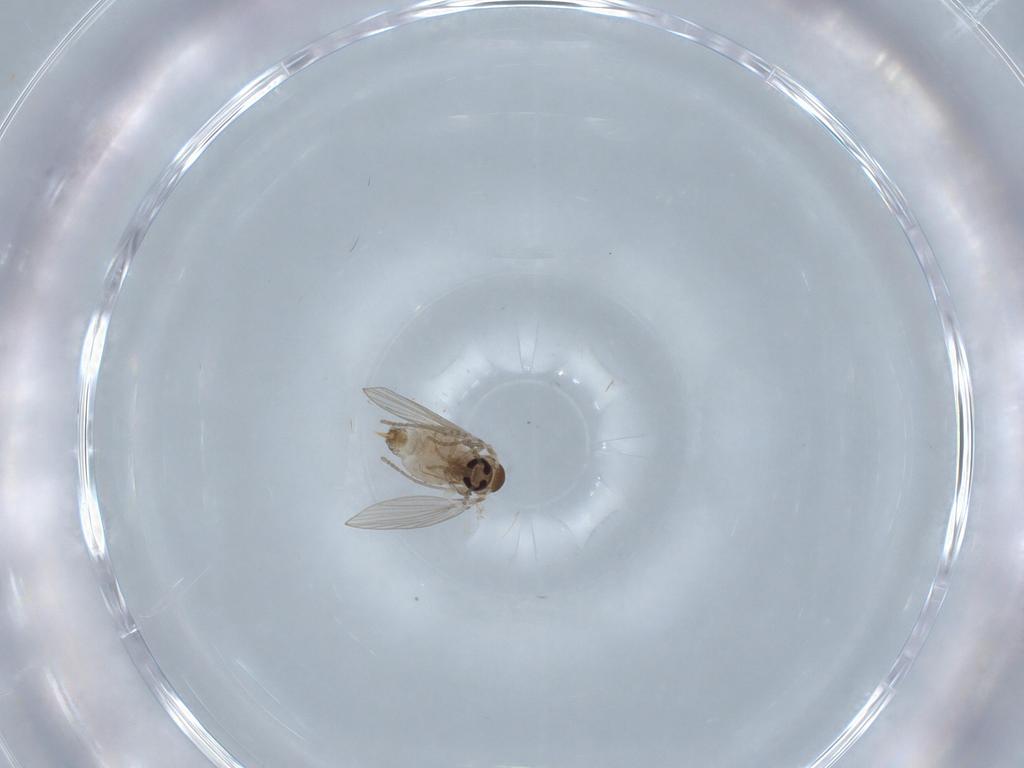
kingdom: Animalia
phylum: Arthropoda
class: Insecta
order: Diptera
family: Psychodidae
